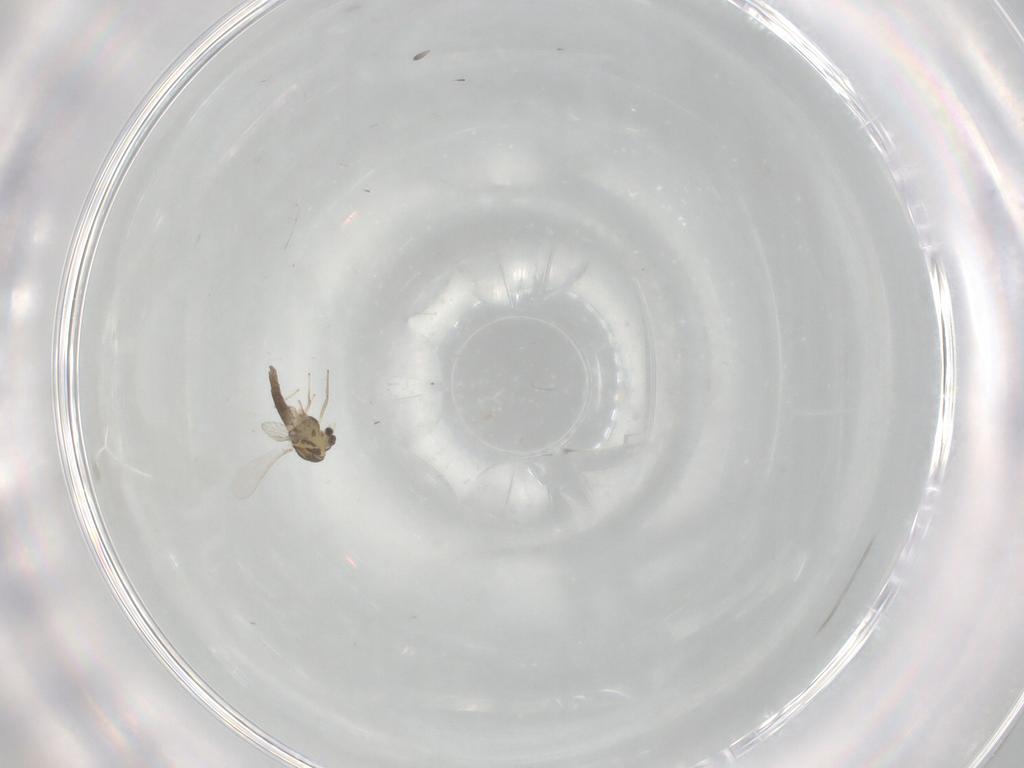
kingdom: Animalia
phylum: Arthropoda
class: Insecta
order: Diptera
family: Chironomidae
